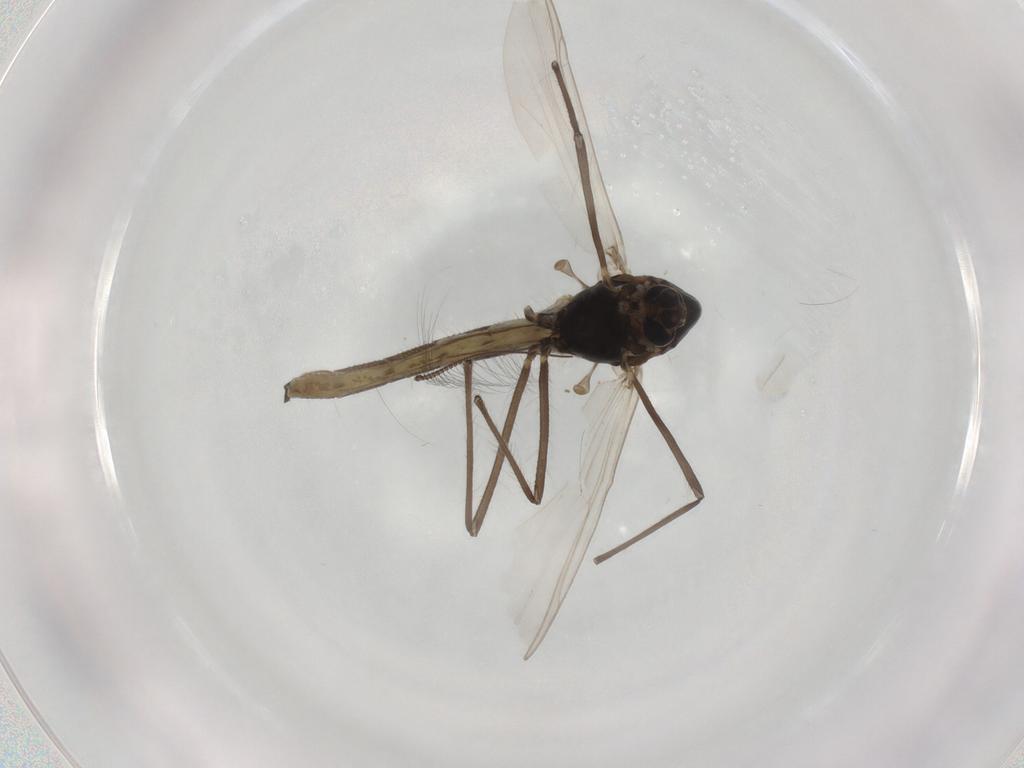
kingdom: Animalia
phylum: Arthropoda
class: Insecta
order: Diptera
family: Chironomidae
